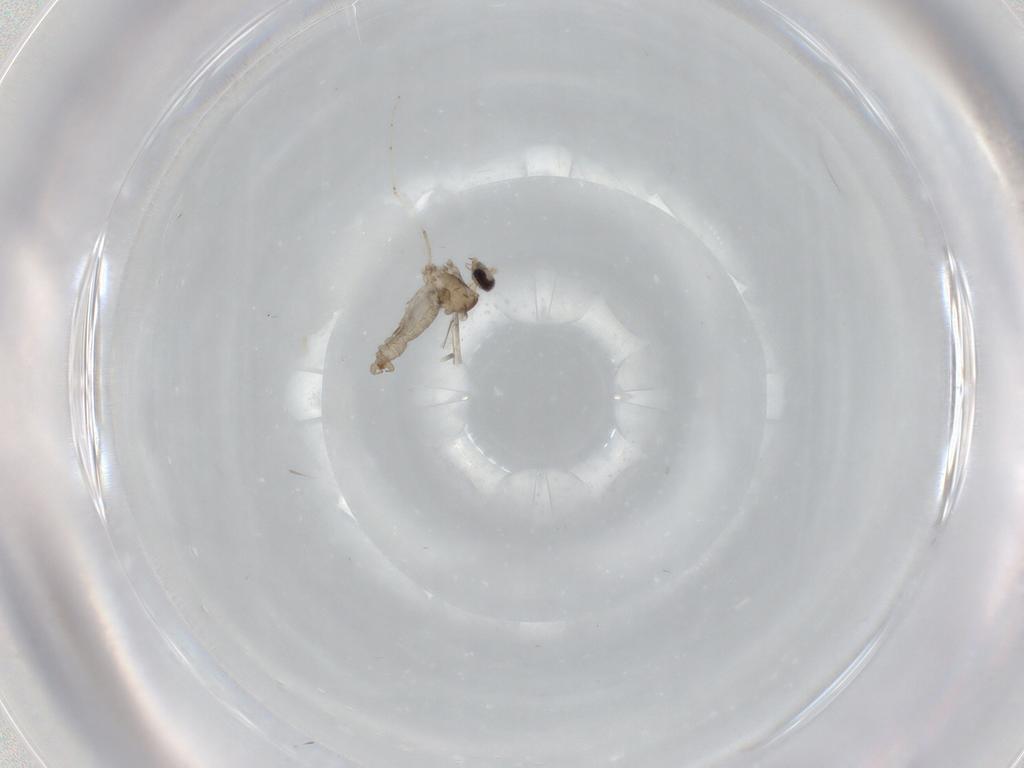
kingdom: Animalia
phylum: Arthropoda
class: Insecta
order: Diptera
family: Cecidomyiidae
